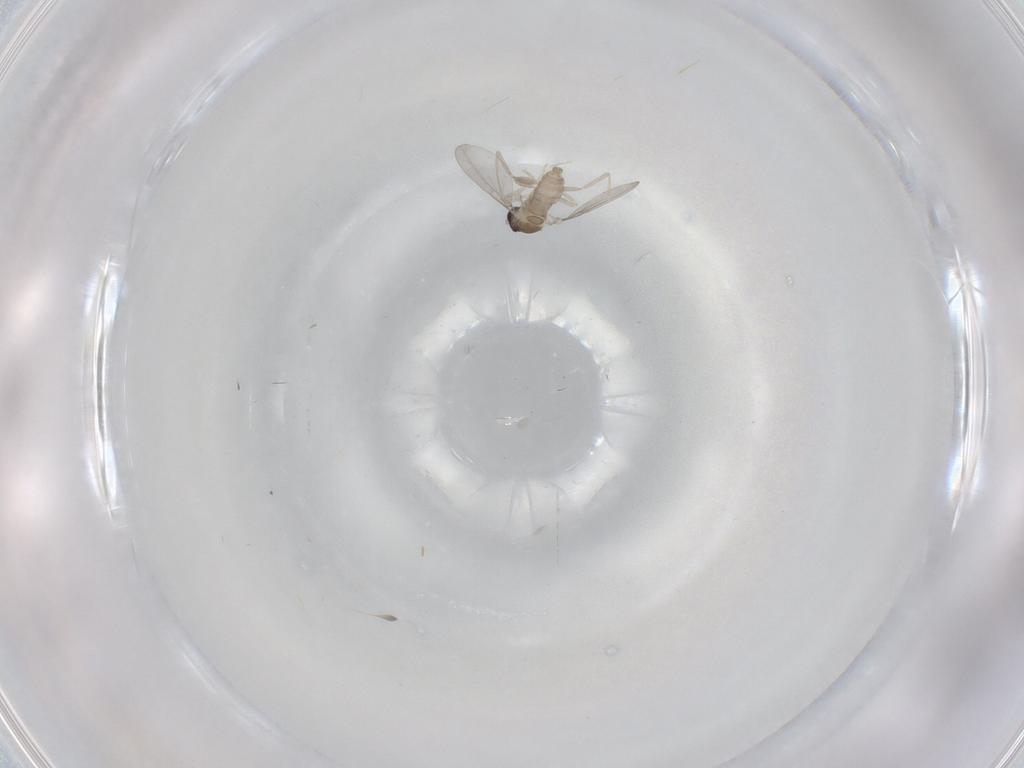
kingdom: Animalia
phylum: Arthropoda
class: Insecta
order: Diptera
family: Cecidomyiidae
